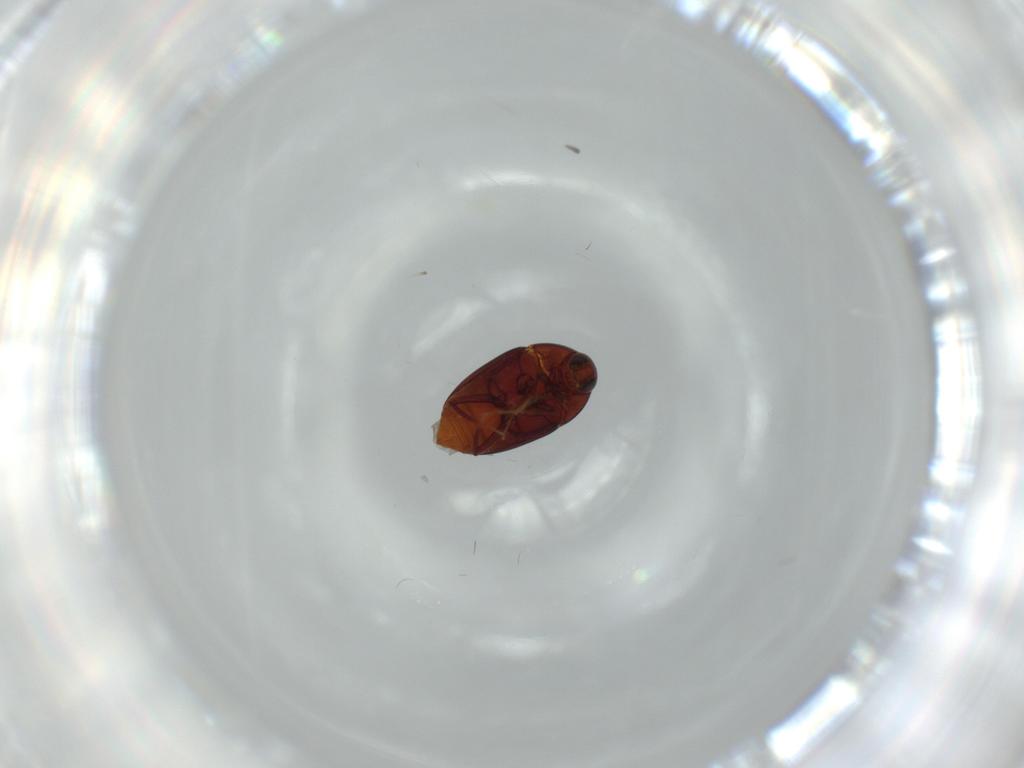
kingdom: Animalia
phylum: Arthropoda
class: Insecta
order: Coleoptera
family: Staphylinidae
